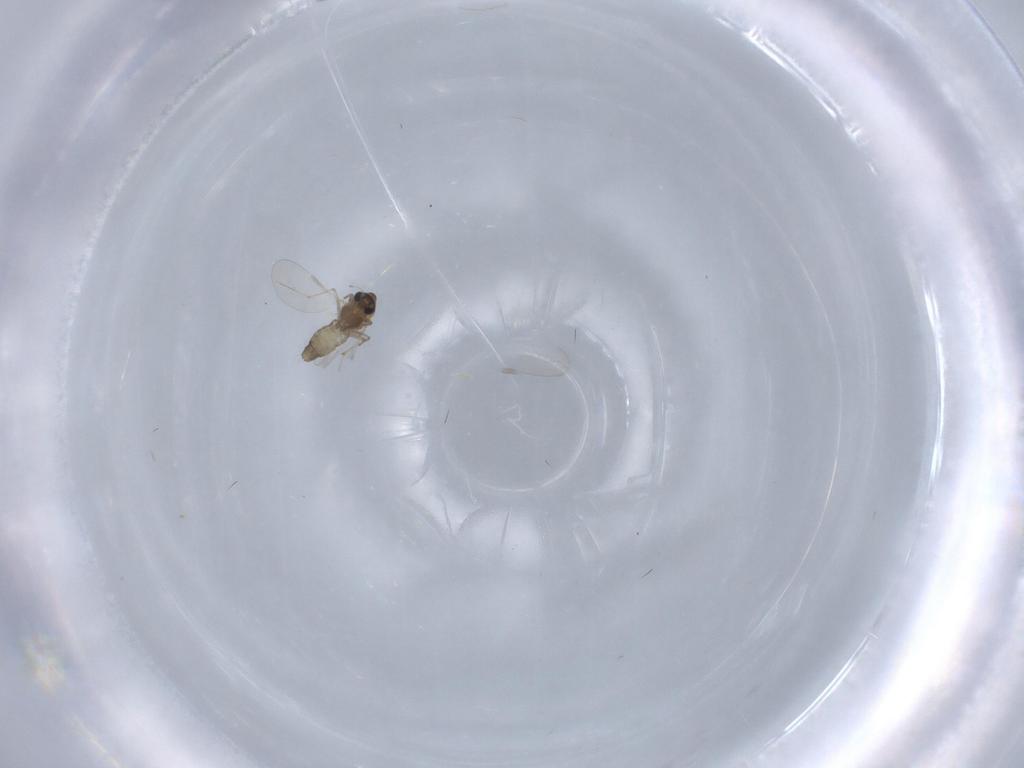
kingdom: Animalia
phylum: Arthropoda
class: Insecta
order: Diptera
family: Chironomidae
